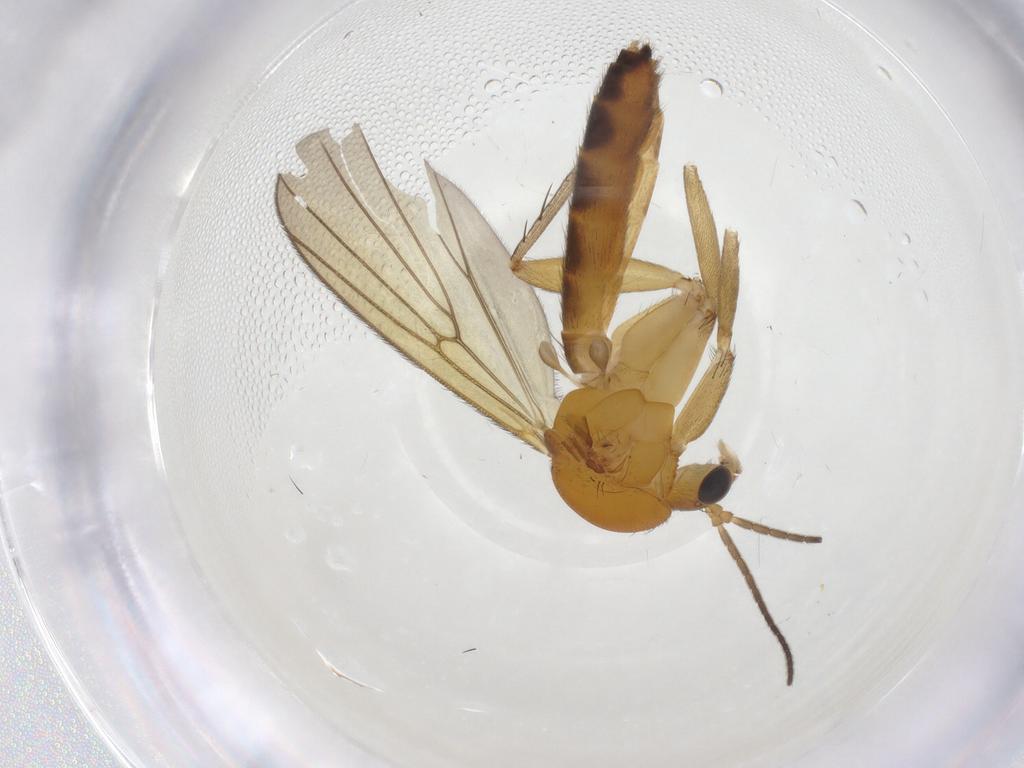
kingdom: Animalia
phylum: Arthropoda
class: Insecta
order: Diptera
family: Mycetophilidae
